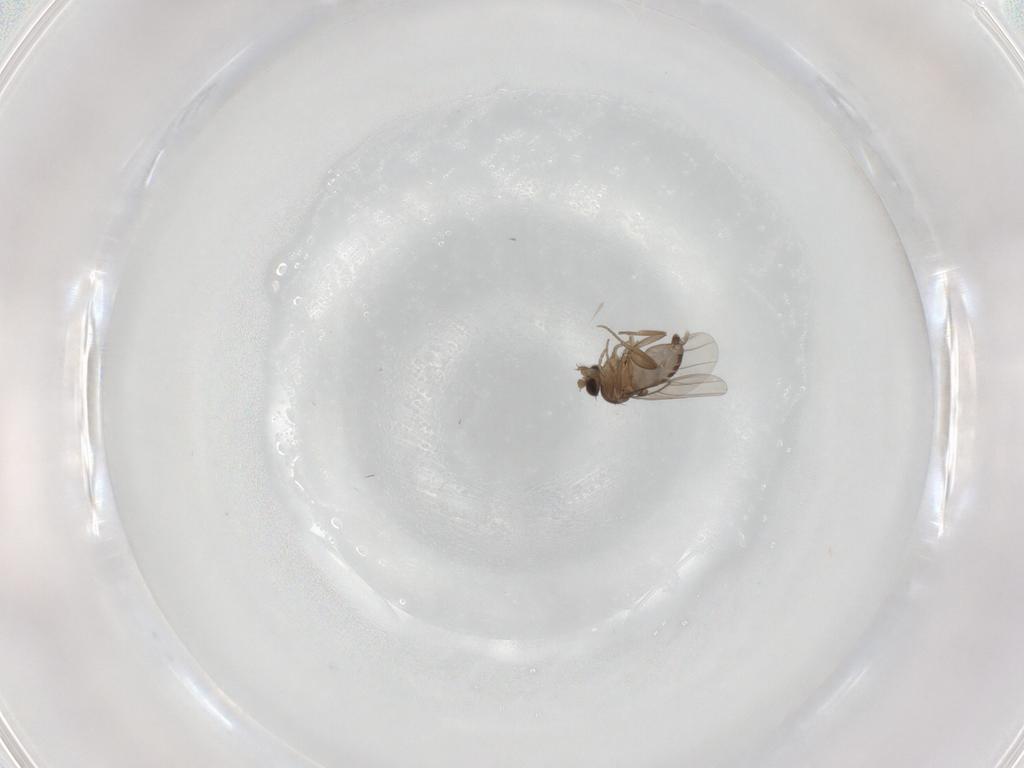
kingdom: Animalia
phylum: Arthropoda
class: Insecta
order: Diptera
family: Phoridae
